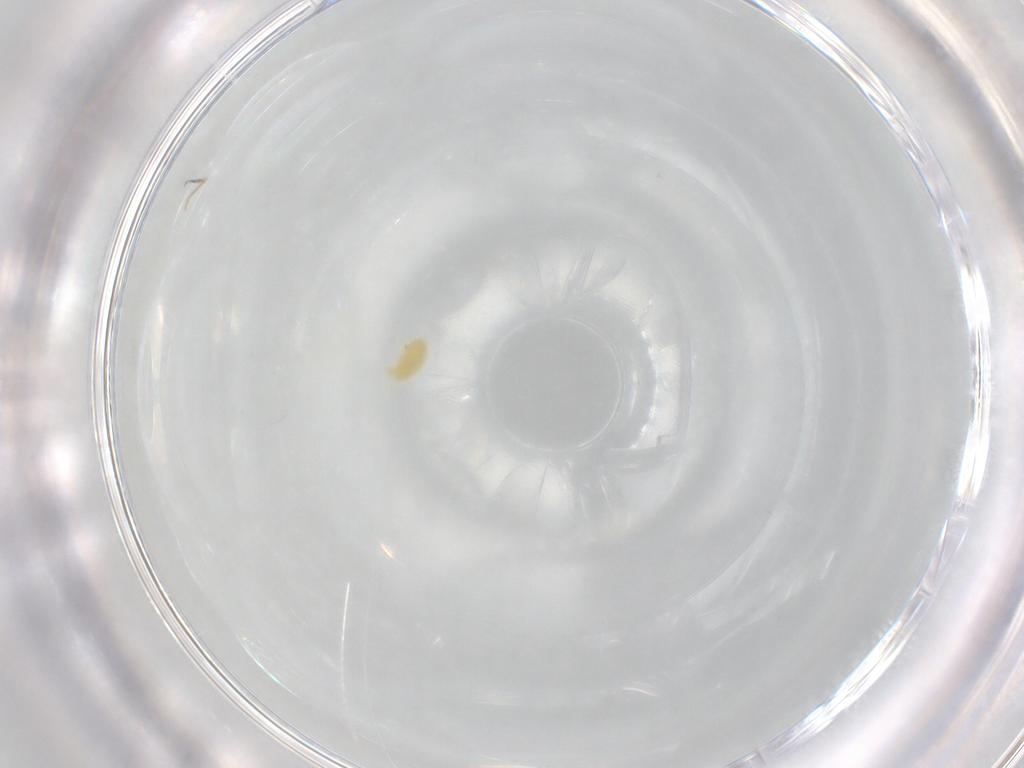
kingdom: Animalia
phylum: Arthropoda
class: Arachnida
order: Trombidiformes
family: Eupodidae
